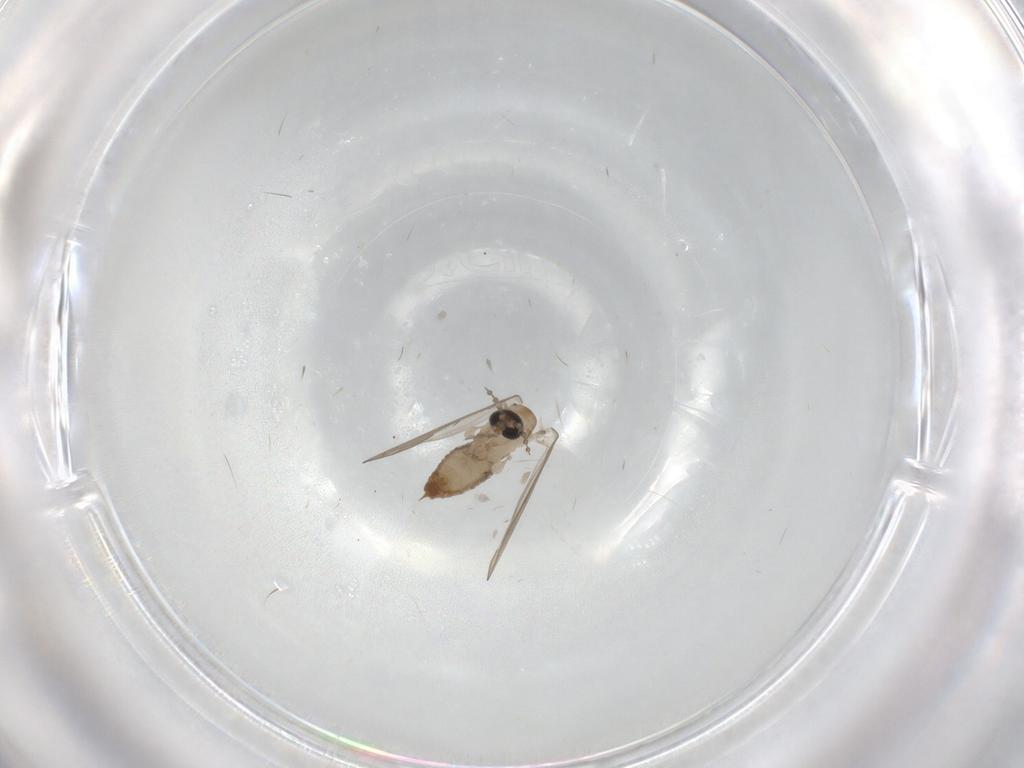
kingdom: Animalia
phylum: Arthropoda
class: Insecta
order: Diptera
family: Psychodidae
